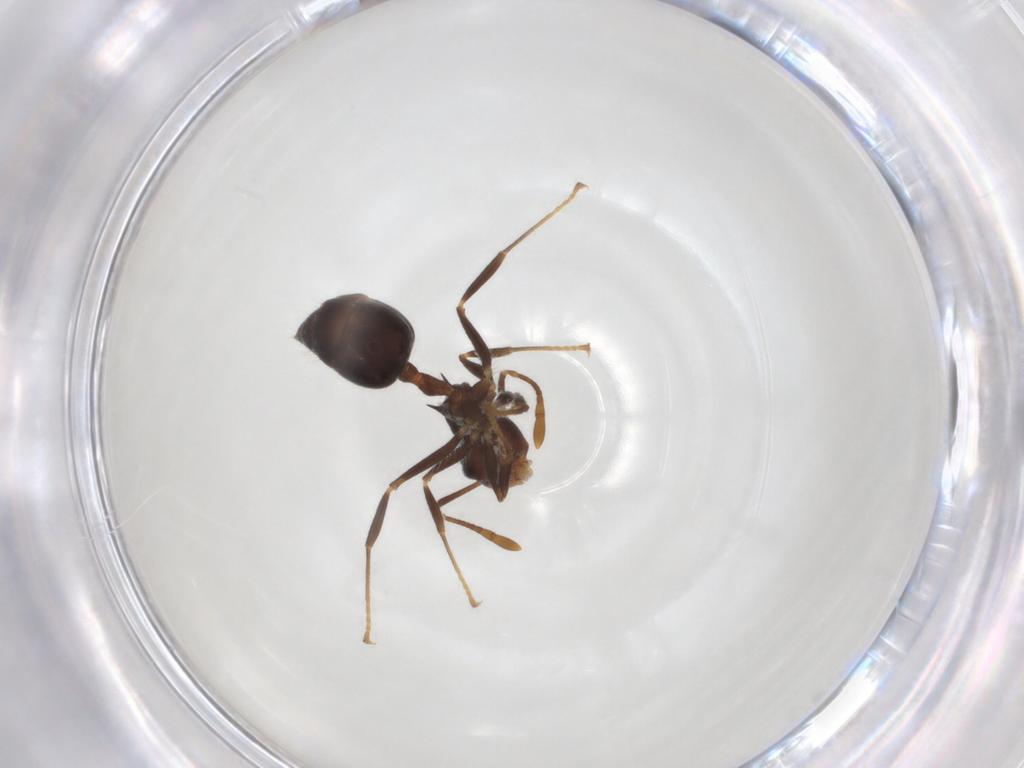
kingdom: Animalia
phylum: Arthropoda
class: Insecta
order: Hymenoptera
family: Formicidae
